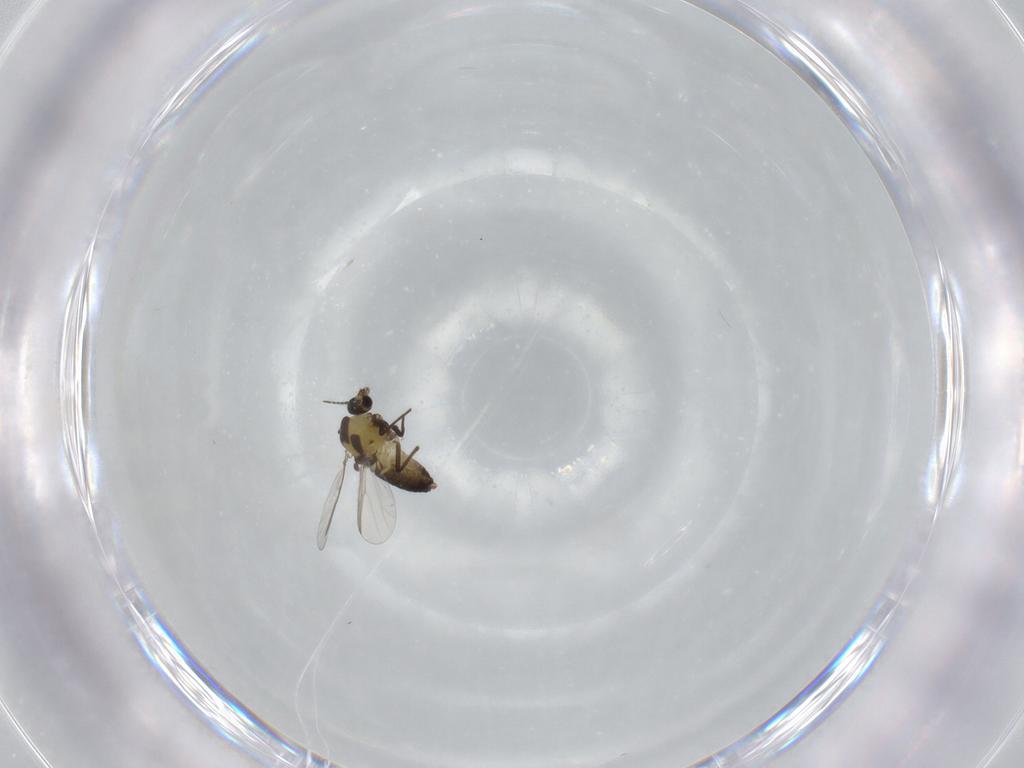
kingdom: Animalia
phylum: Arthropoda
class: Insecta
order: Diptera
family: Chironomidae
